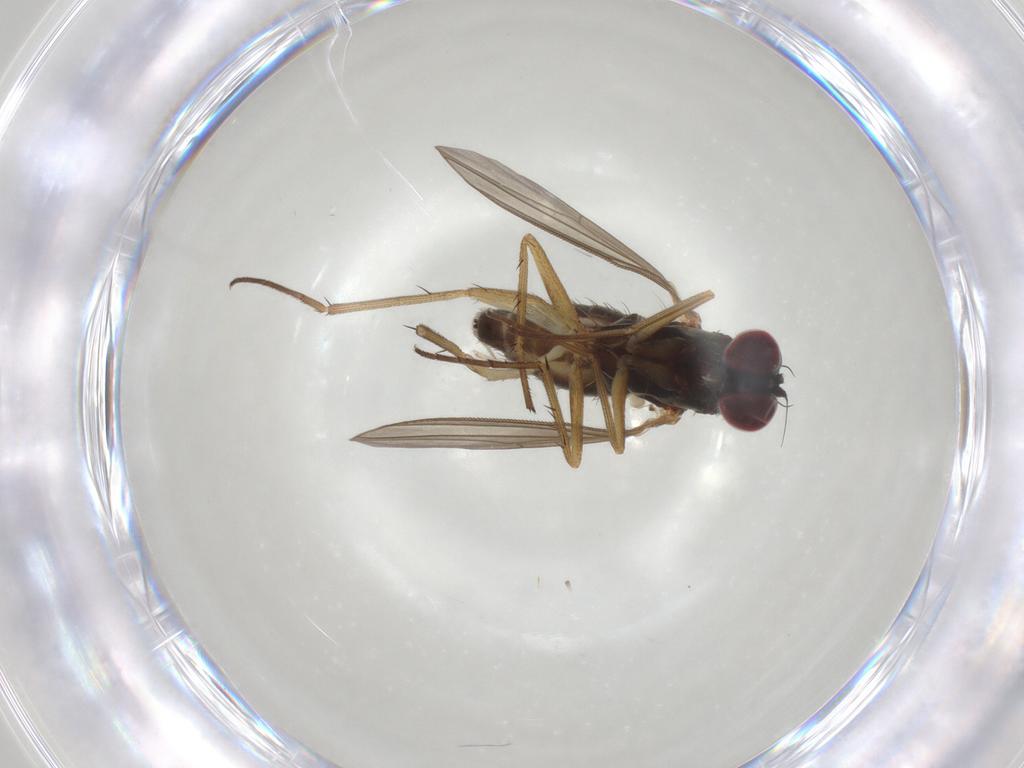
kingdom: Animalia
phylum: Arthropoda
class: Insecta
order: Diptera
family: Dolichopodidae
